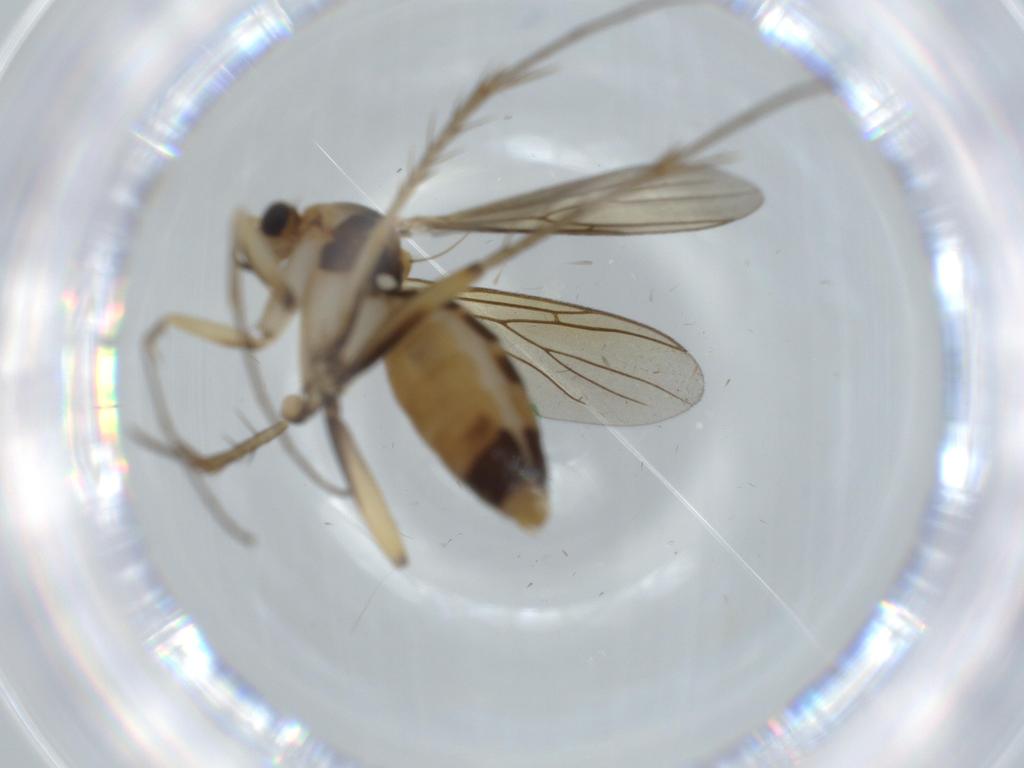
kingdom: Animalia
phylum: Arthropoda
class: Insecta
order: Diptera
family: Mycetophilidae
